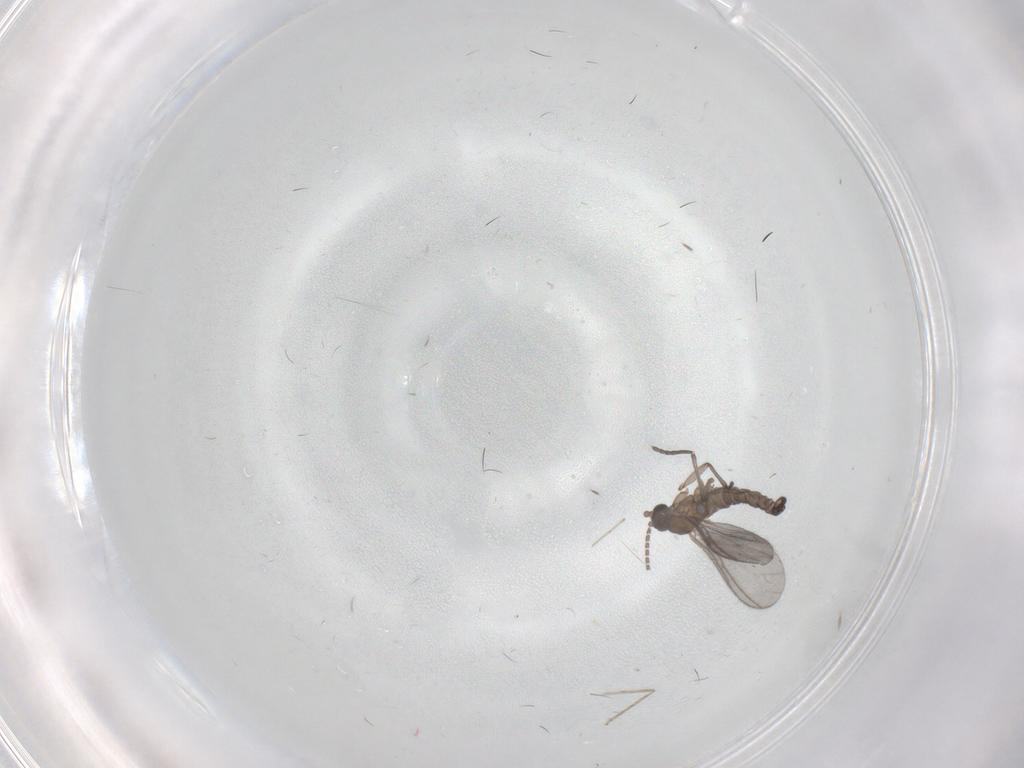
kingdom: Animalia
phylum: Arthropoda
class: Insecta
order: Diptera
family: Sciaridae
